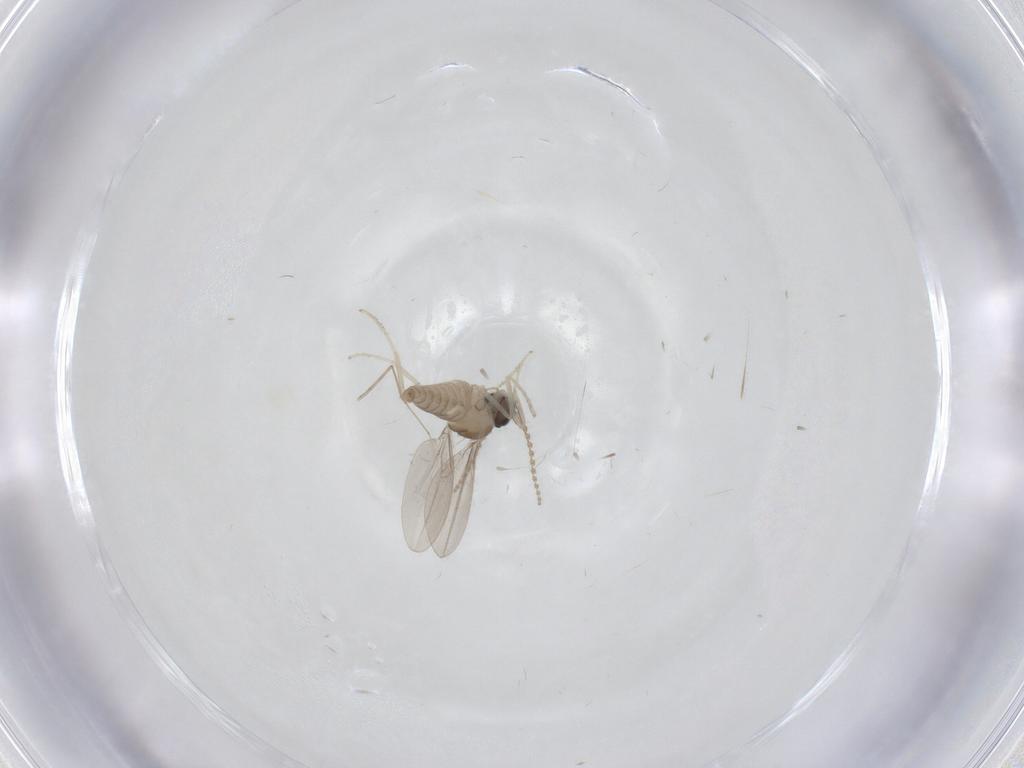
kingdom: Animalia
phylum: Arthropoda
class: Insecta
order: Diptera
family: Cecidomyiidae
